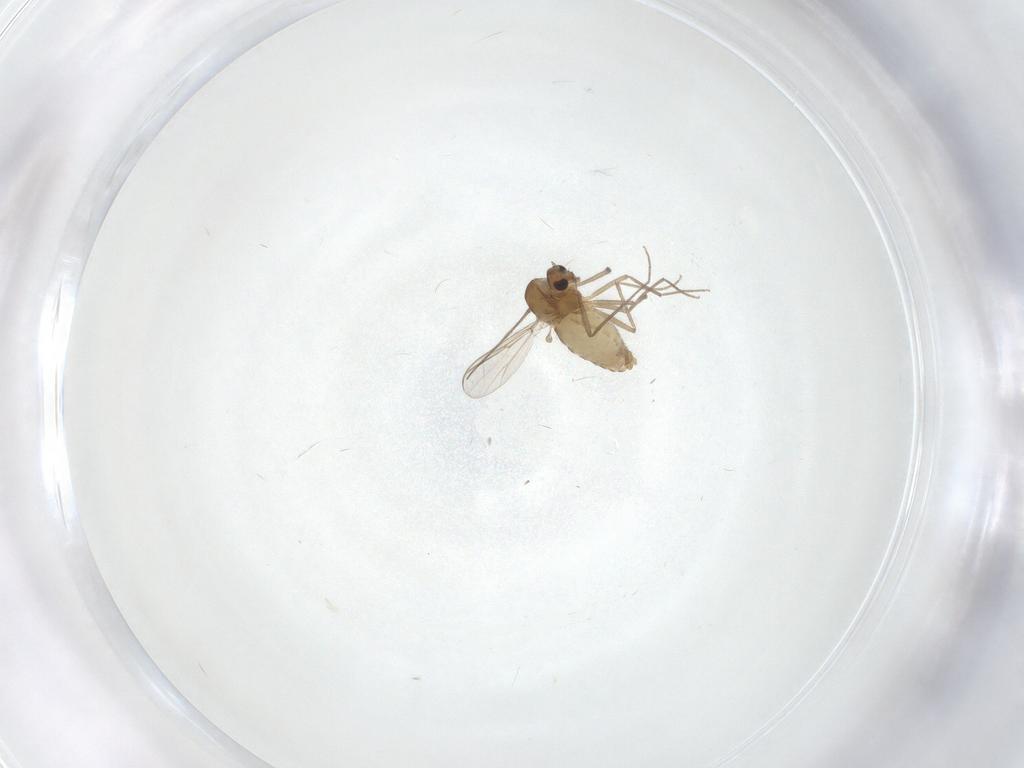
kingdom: Animalia
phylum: Arthropoda
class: Insecta
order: Diptera
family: Chironomidae
